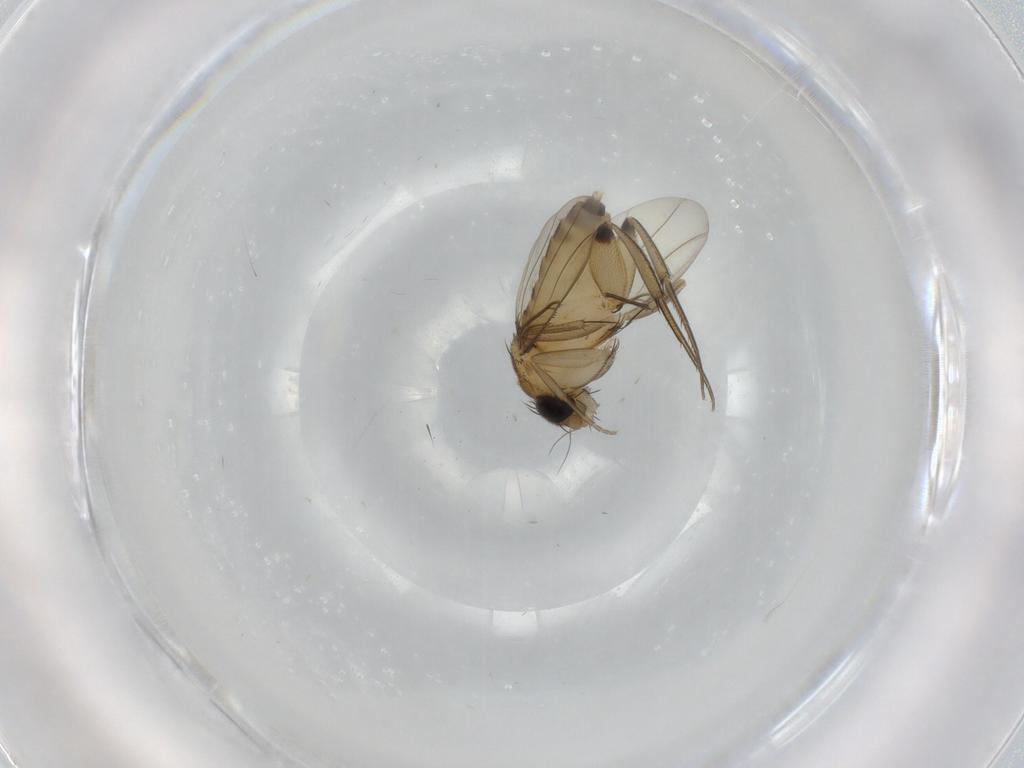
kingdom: Animalia
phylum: Arthropoda
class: Insecta
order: Diptera
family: Phoridae
